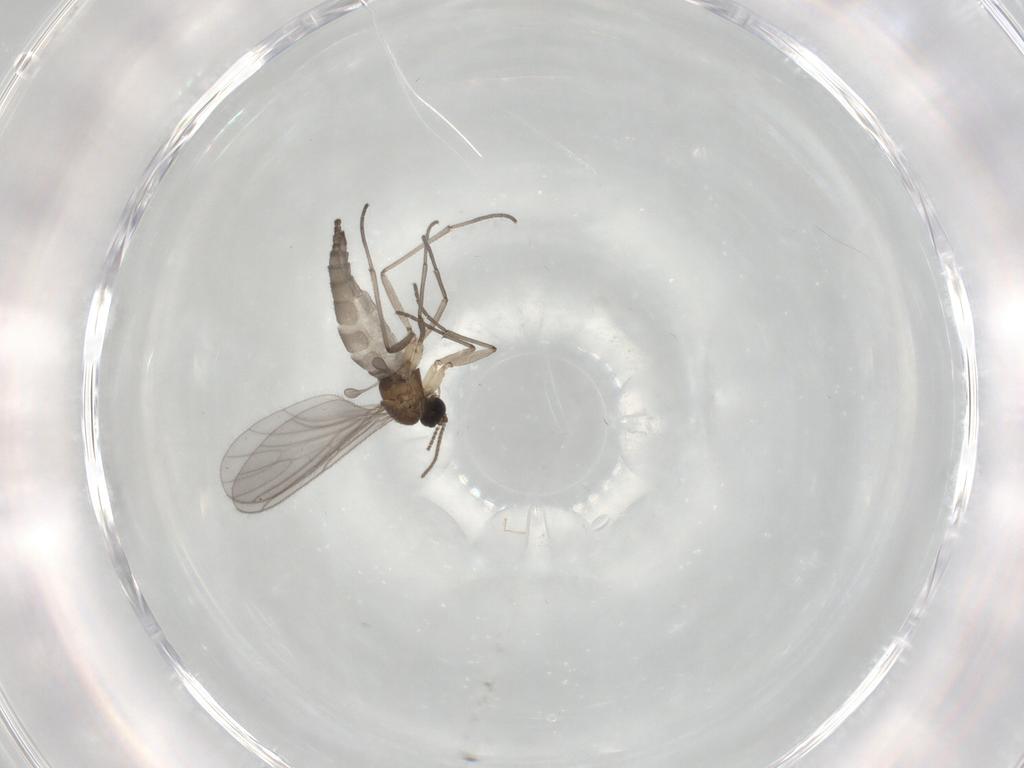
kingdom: Animalia
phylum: Arthropoda
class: Insecta
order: Diptera
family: Sciaridae
